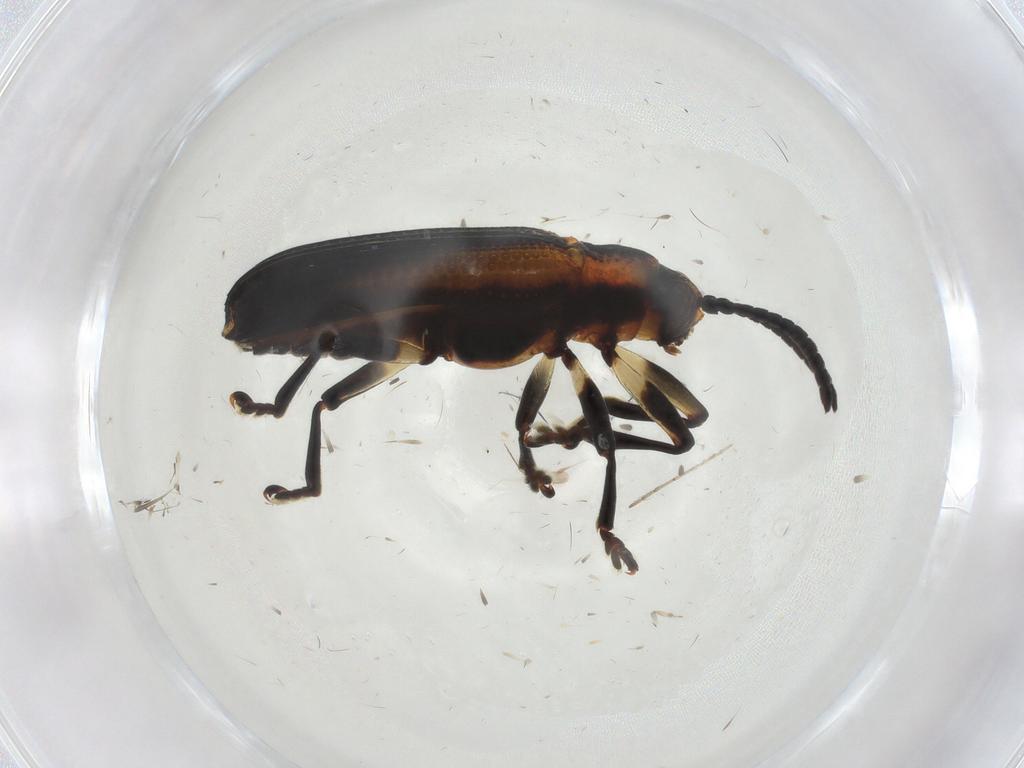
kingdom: Animalia
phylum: Arthropoda
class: Insecta
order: Coleoptera
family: Chrysomelidae
